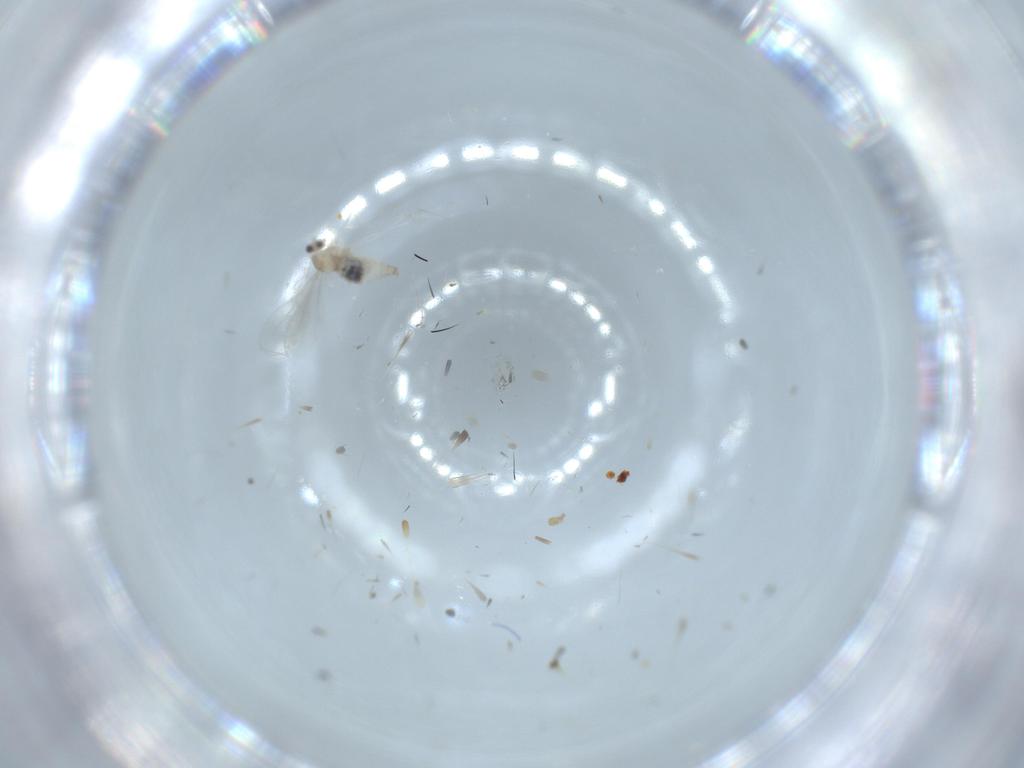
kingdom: Animalia
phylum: Arthropoda
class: Insecta
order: Diptera
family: Cecidomyiidae
